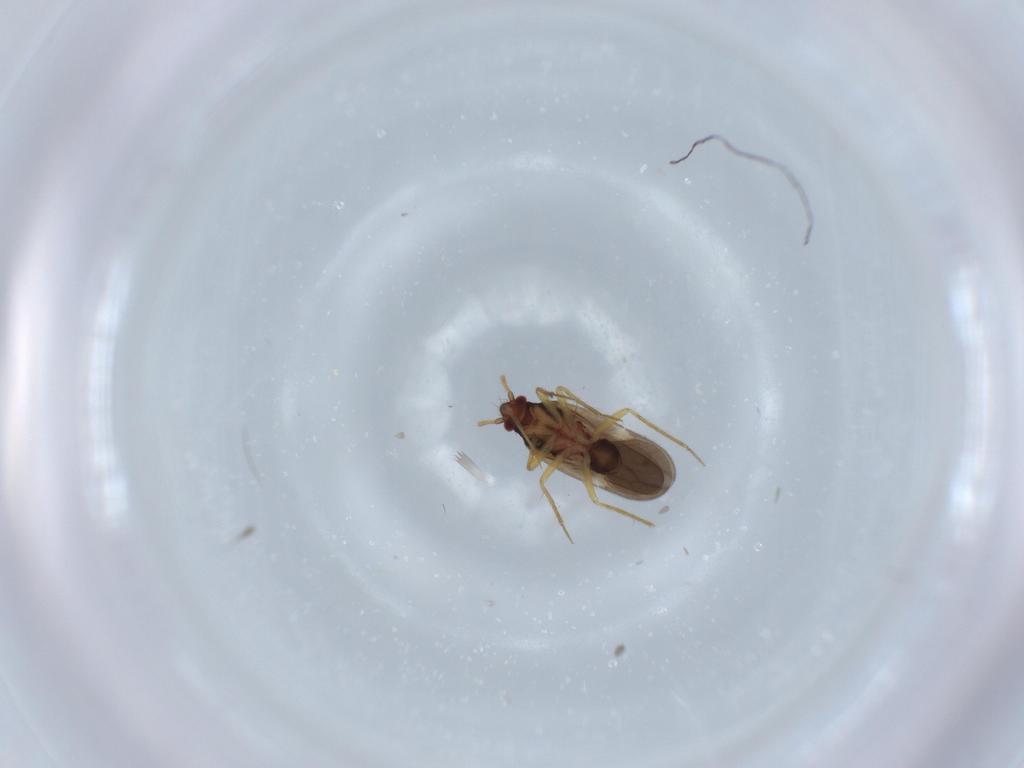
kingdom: Animalia
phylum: Arthropoda
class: Insecta
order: Hemiptera
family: Ceratocombidae
